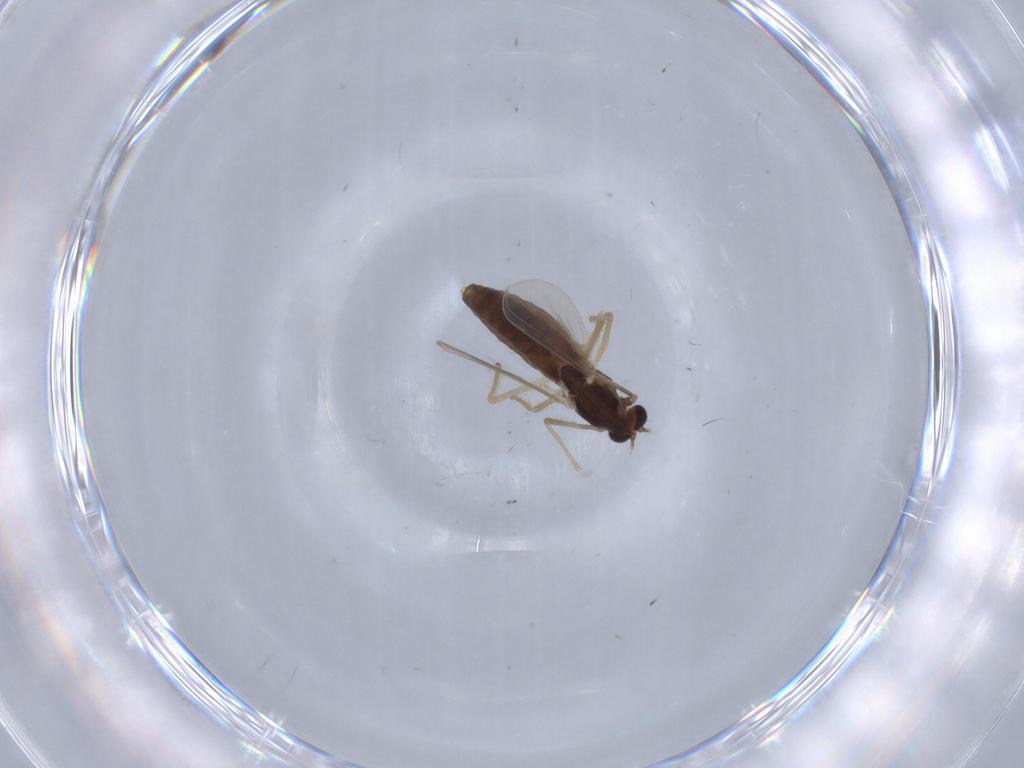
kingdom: Animalia
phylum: Arthropoda
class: Insecta
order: Diptera
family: Chironomidae
